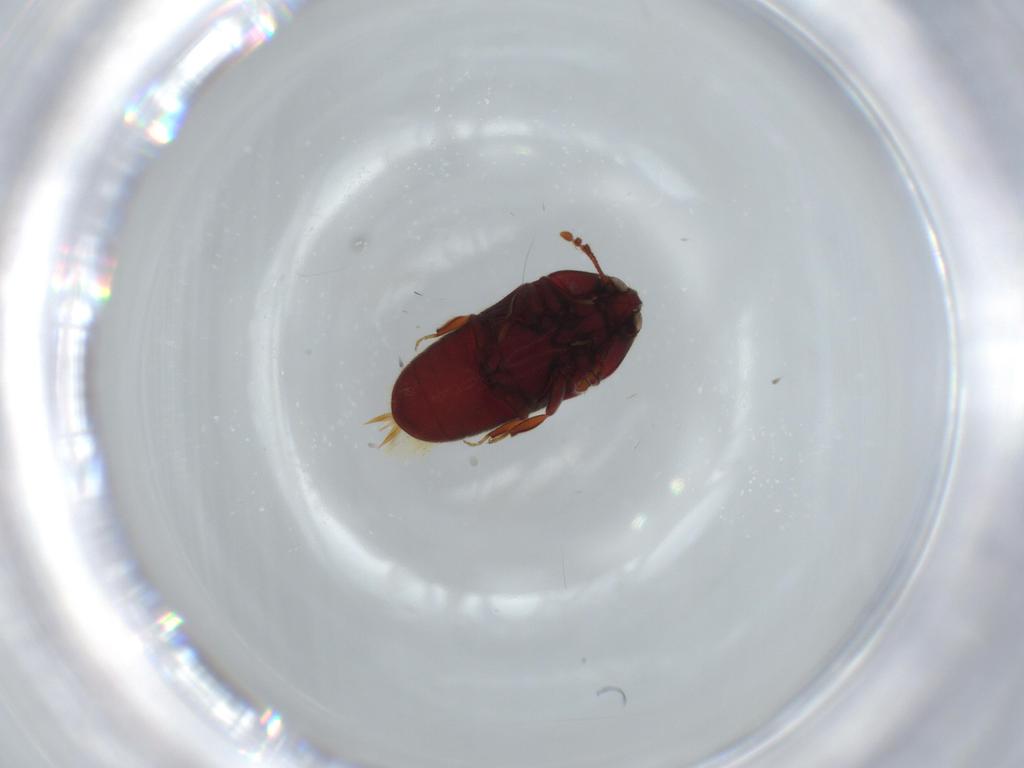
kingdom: Animalia
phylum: Arthropoda
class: Insecta
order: Coleoptera
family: Throscidae
